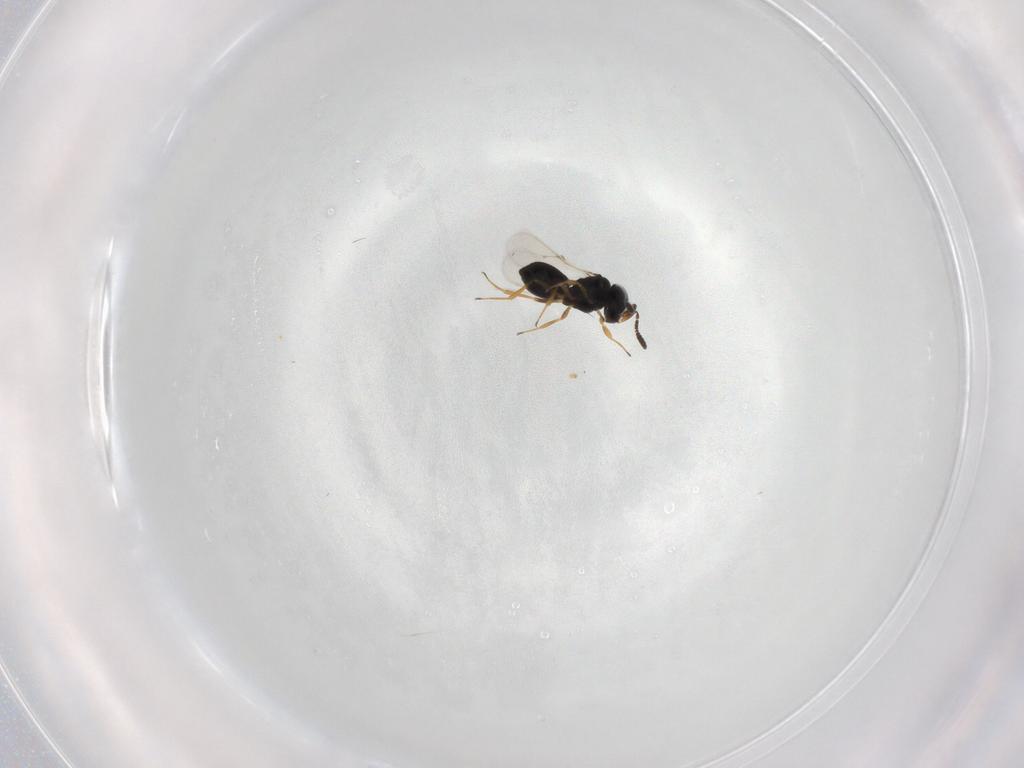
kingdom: Animalia
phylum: Arthropoda
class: Insecta
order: Hymenoptera
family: Scelionidae
